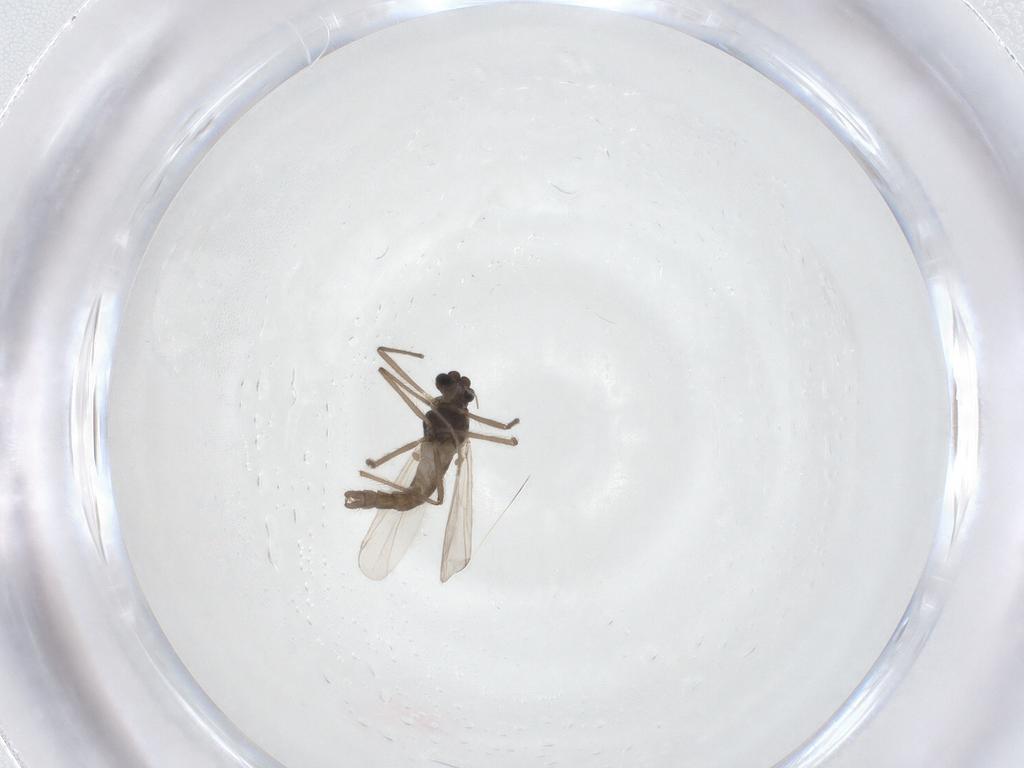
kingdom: Animalia
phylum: Arthropoda
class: Insecta
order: Diptera
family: Chironomidae
